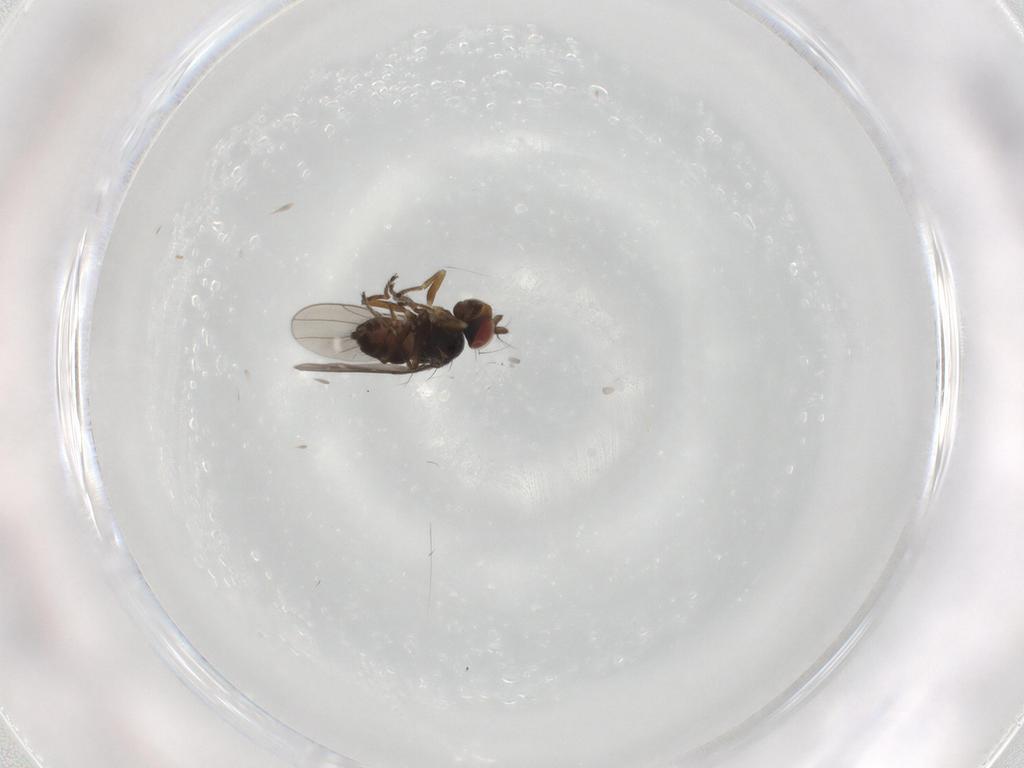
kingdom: Animalia
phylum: Arthropoda
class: Insecta
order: Diptera
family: Ephydridae
